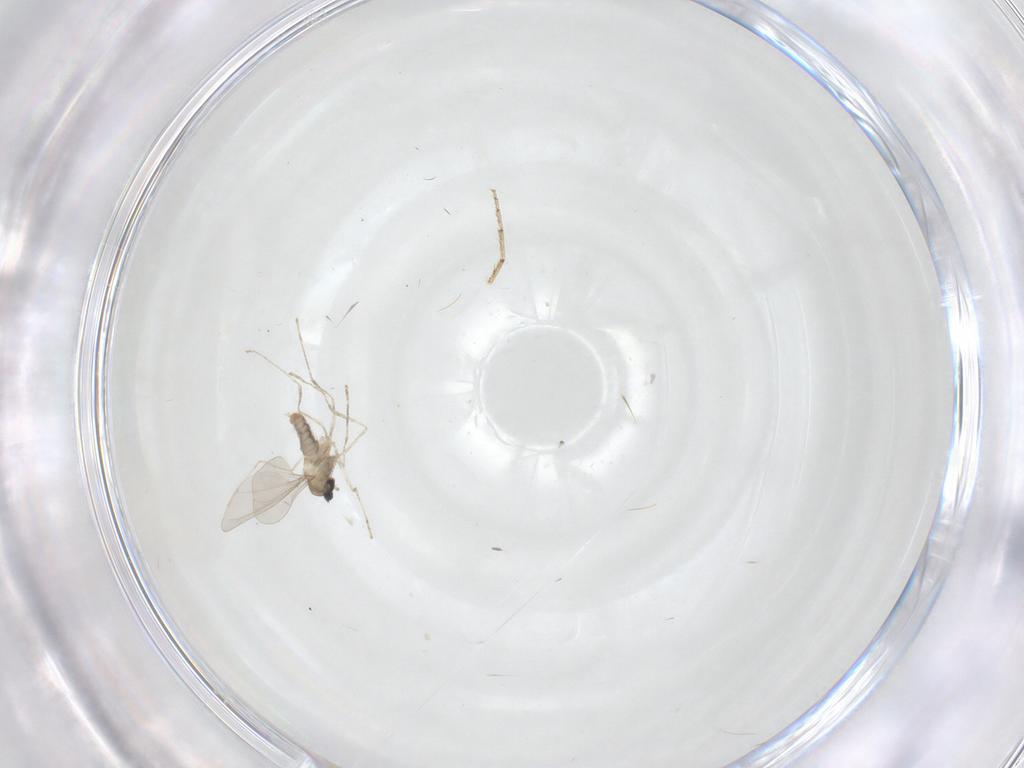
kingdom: Animalia
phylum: Arthropoda
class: Insecta
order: Diptera
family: Cecidomyiidae
